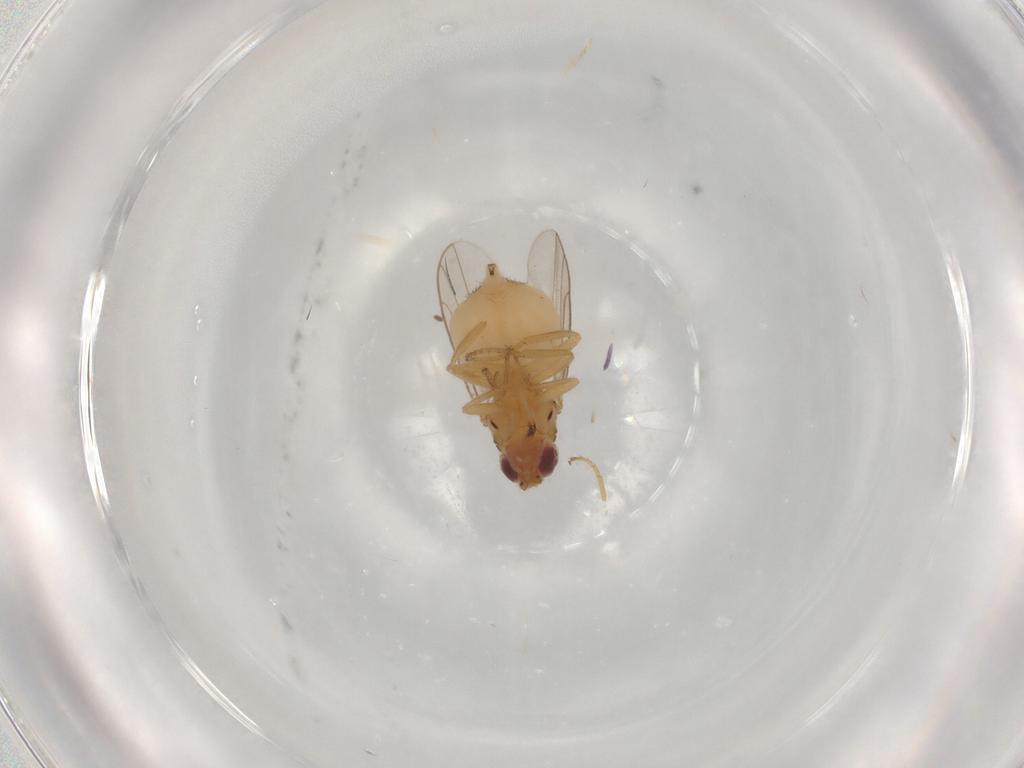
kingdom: Animalia
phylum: Arthropoda
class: Insecta
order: Diptera
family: Chloropidae
